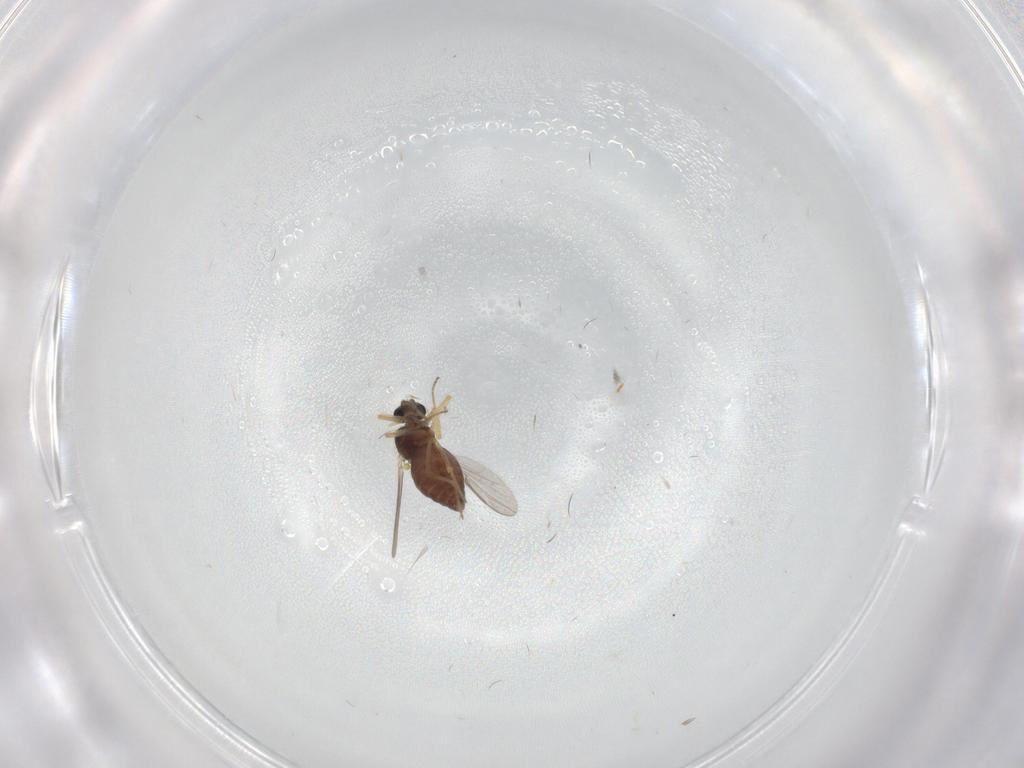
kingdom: Animalia
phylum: Arthropoda
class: Insecta
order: Diptera
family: Ceratopogonidae
